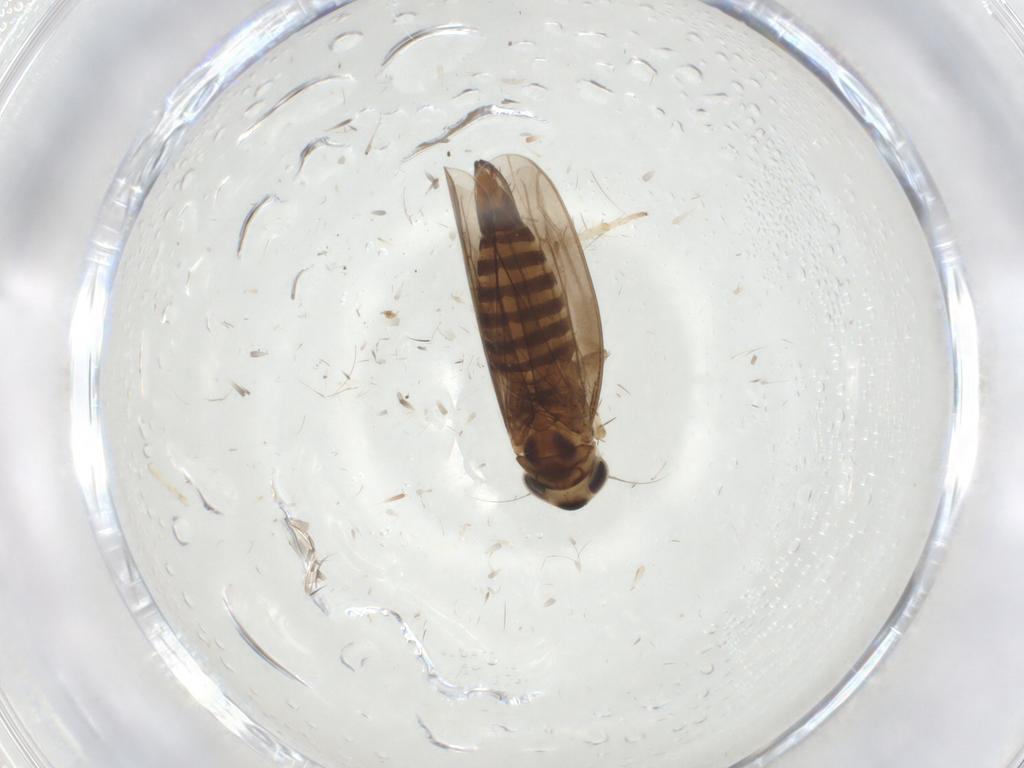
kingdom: Animalia
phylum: Arthropoda
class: Insecta
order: Hemiptera
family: Cicadellidae
